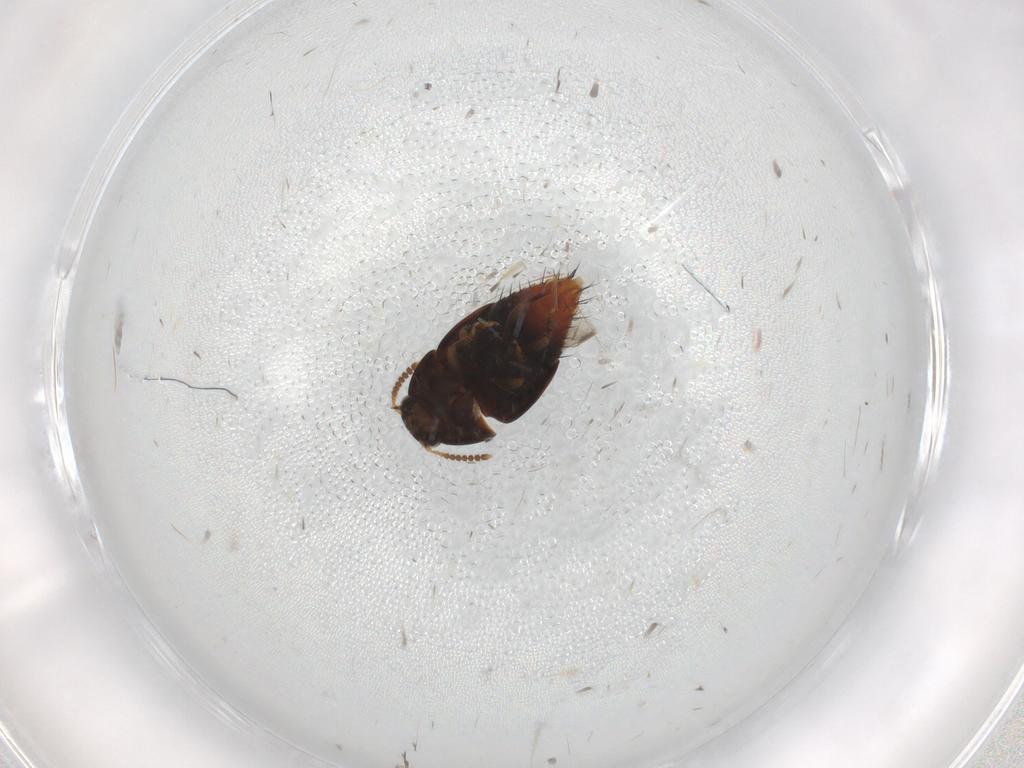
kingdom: Animalia
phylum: Arthropoda
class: Insecta
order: Coleoptera
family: Staphylinidae
